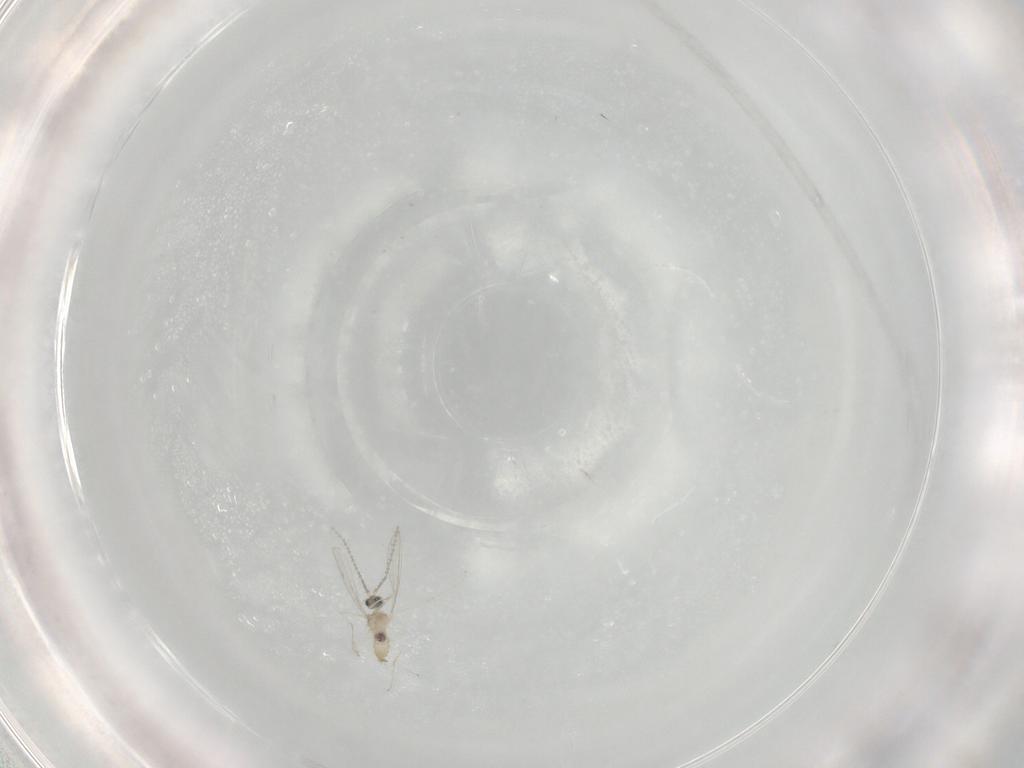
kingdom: Animalia
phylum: Arthropoda
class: Insecta
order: Diptera
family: Cecidomyiidae
